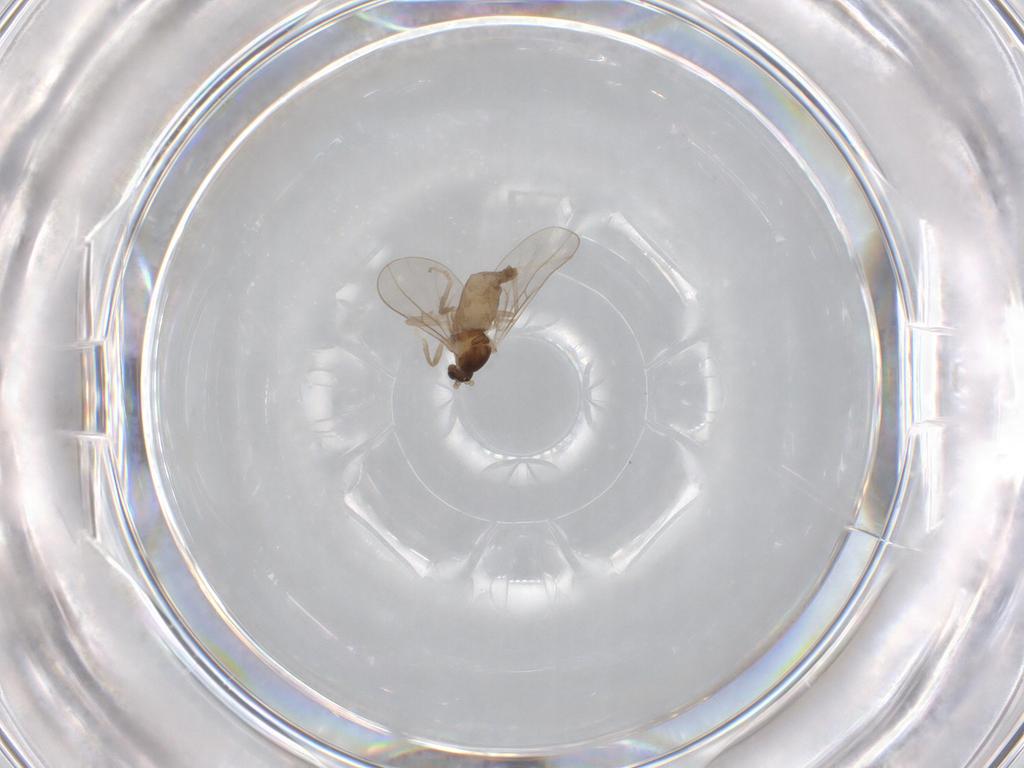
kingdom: Animalia
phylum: Arthropoda
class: Insecta
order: Diptera
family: Cecidomyiidae
